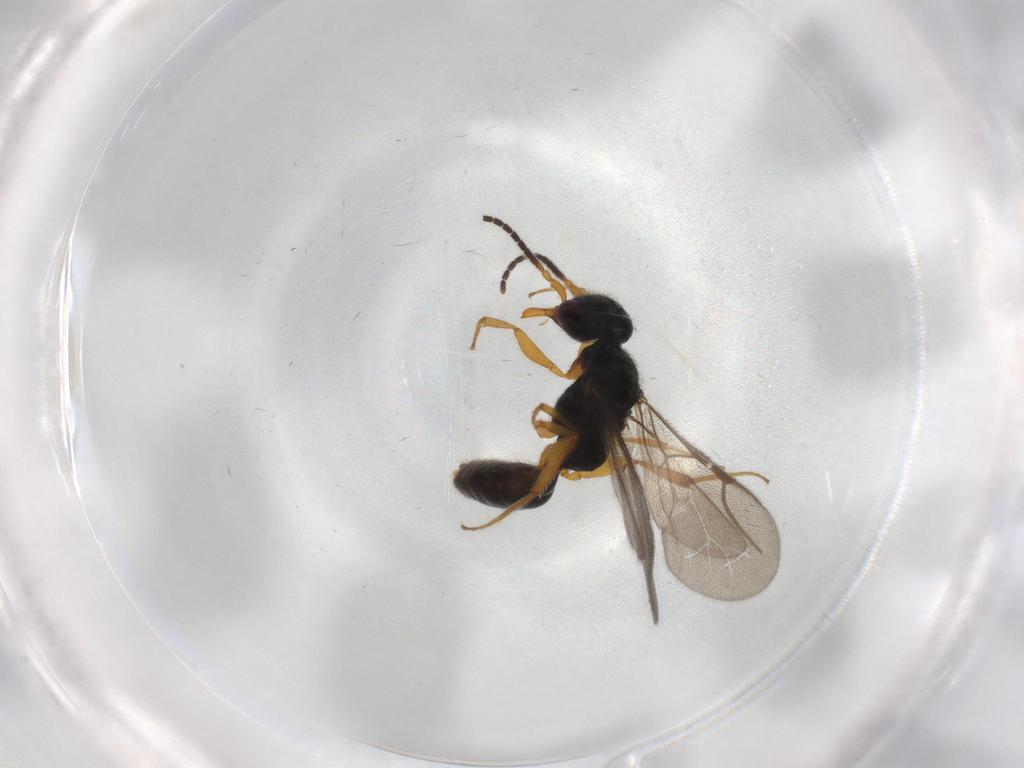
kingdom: Animalia
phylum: Arthropoda
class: Insecta
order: Hymenoptera
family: Bethylidae
